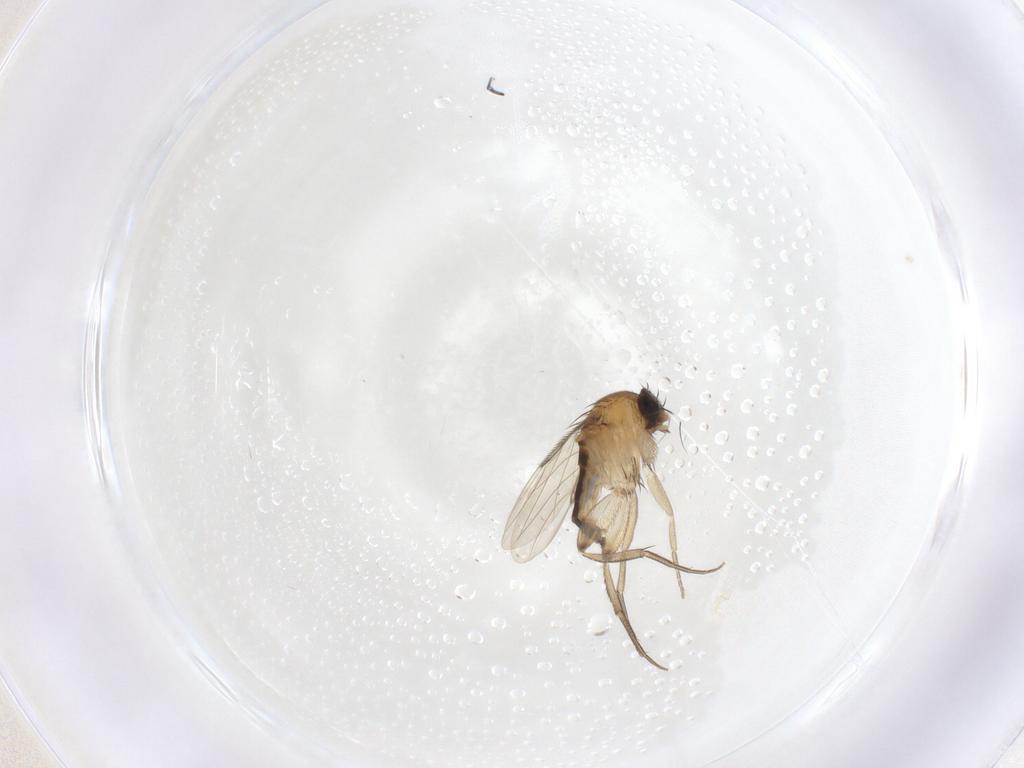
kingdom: Animalia
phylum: Arthropoda
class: Insecta
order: Diptera
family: Phoridae
